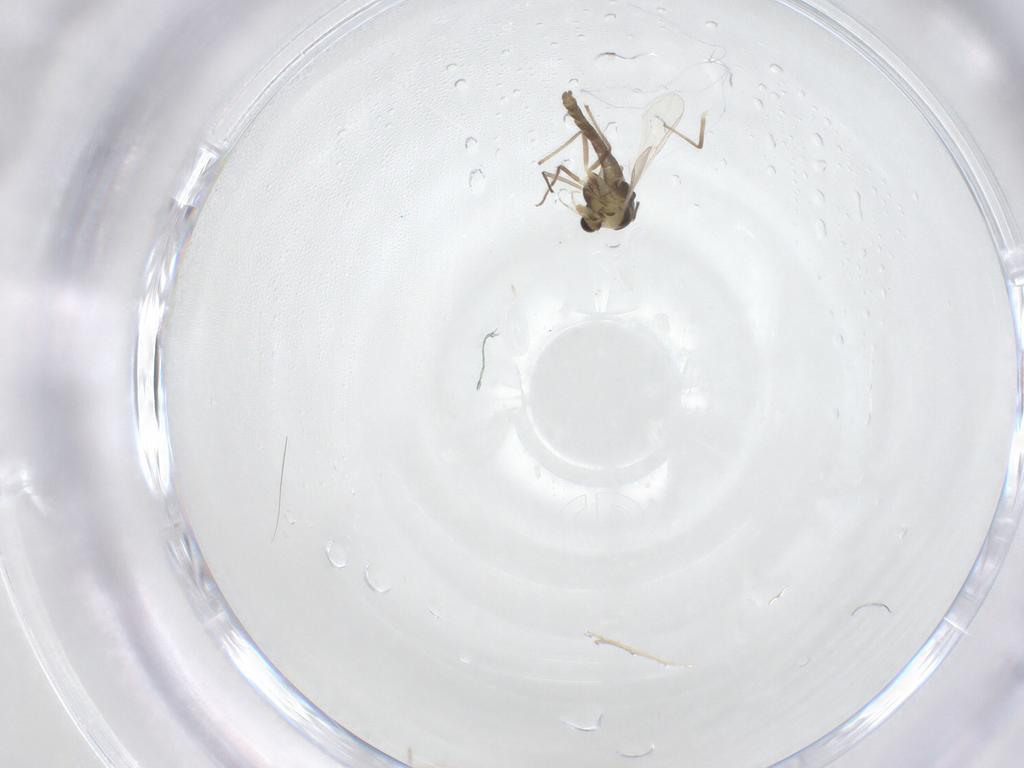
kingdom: Animalia
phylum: Arthropoda
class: Insecta
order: Diptera
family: Chironomidae
